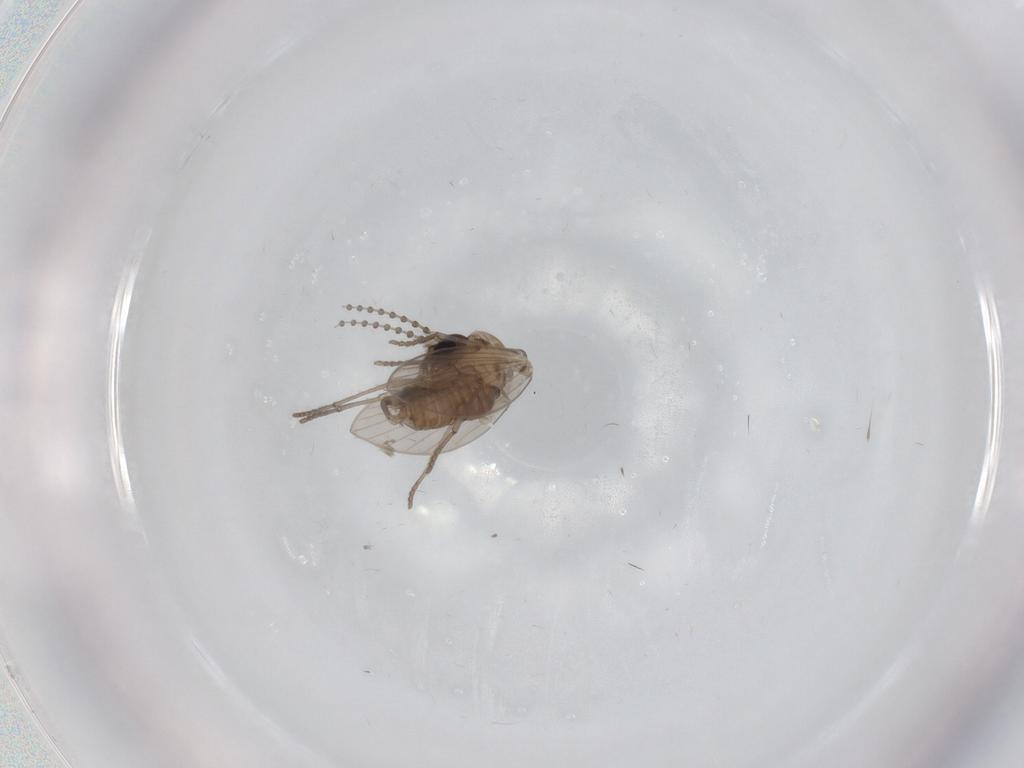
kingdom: Animalia
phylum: Arthropoda
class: Insecta
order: Diptera
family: Psychodidae
